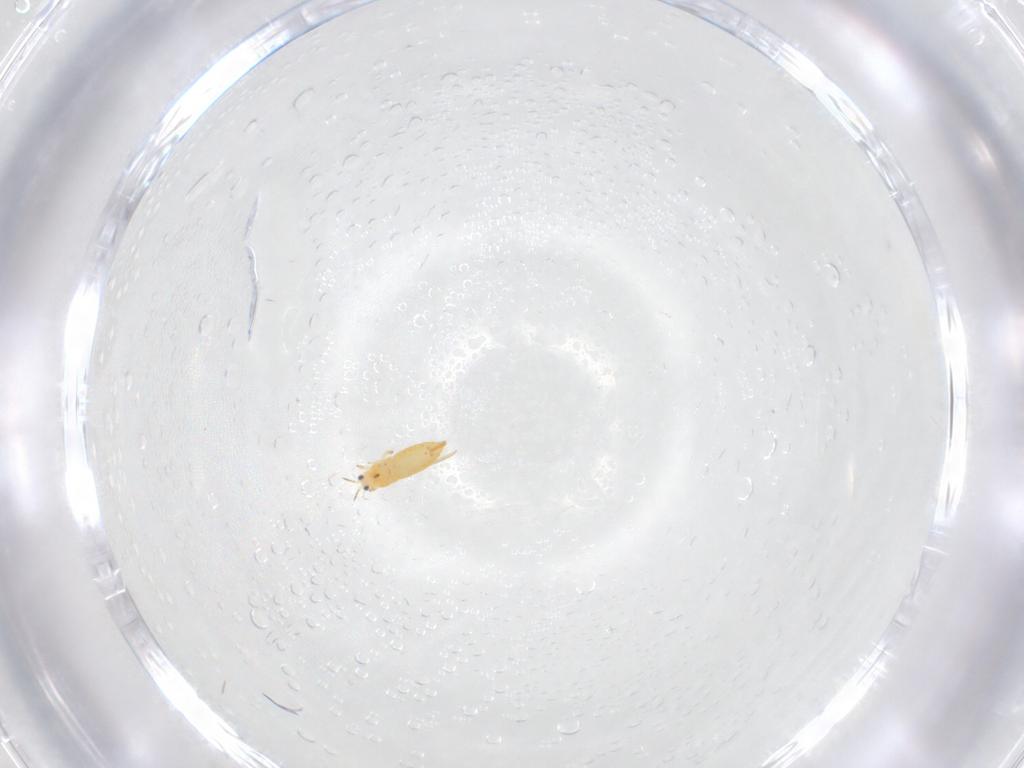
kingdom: Animalia
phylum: Arthropoda
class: Insecta
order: Thysanoptera
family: Thripidae
